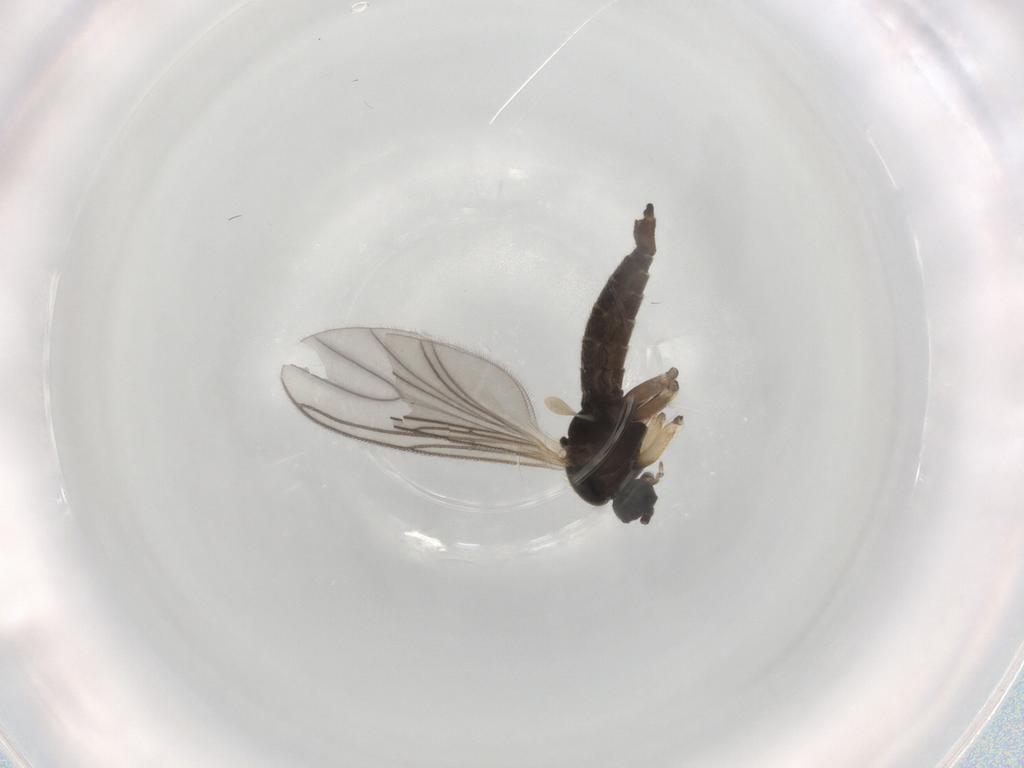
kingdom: Animalia
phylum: Arthropoda
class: Insecta
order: Diptera
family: Sciaridae
